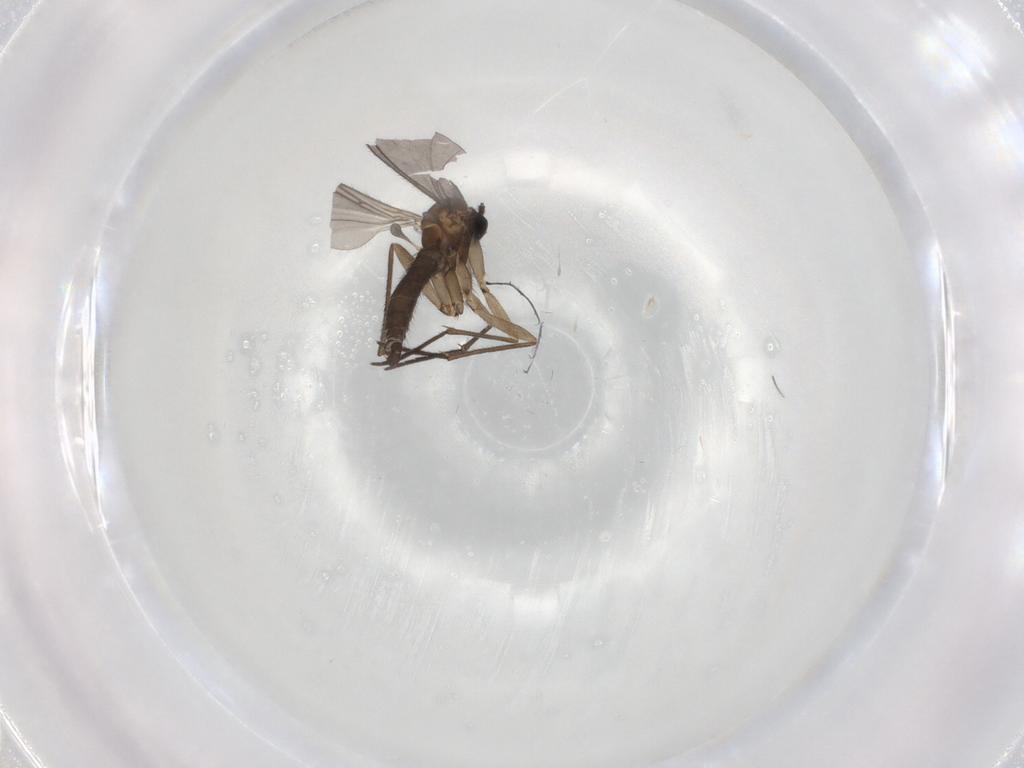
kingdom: Animalia
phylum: Arthropoda
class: Insecta
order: Diptera
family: Sciaridae
